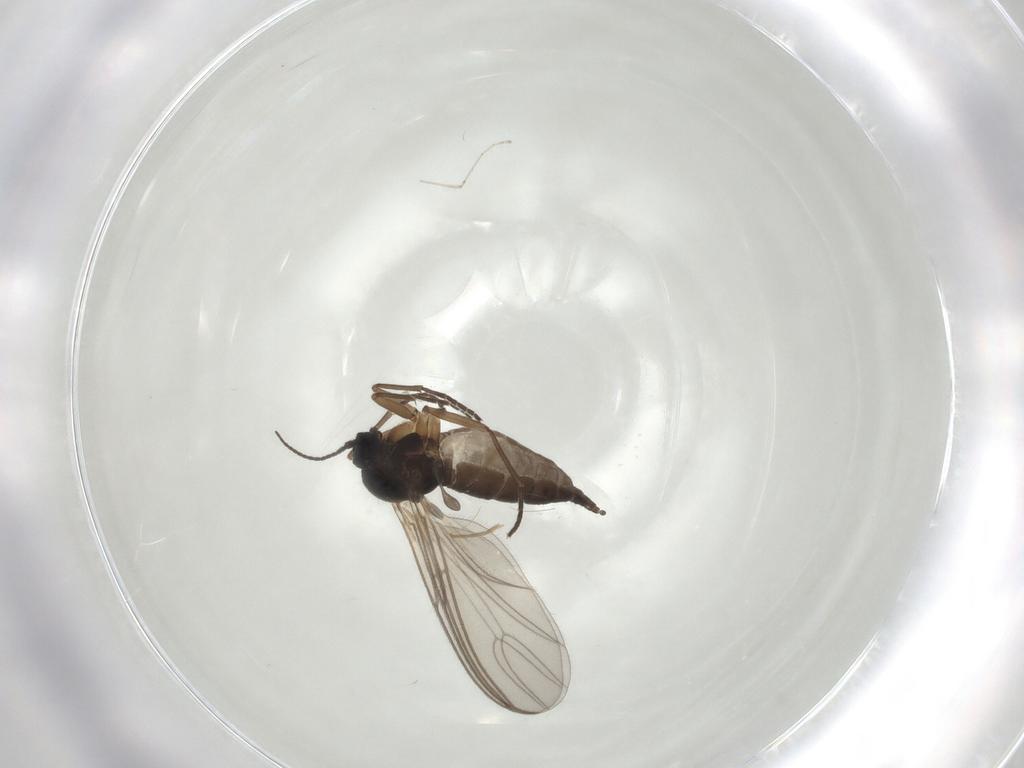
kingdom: Animalia
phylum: Arthropoda
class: Insecta
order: Diptera
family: Sciaridae
